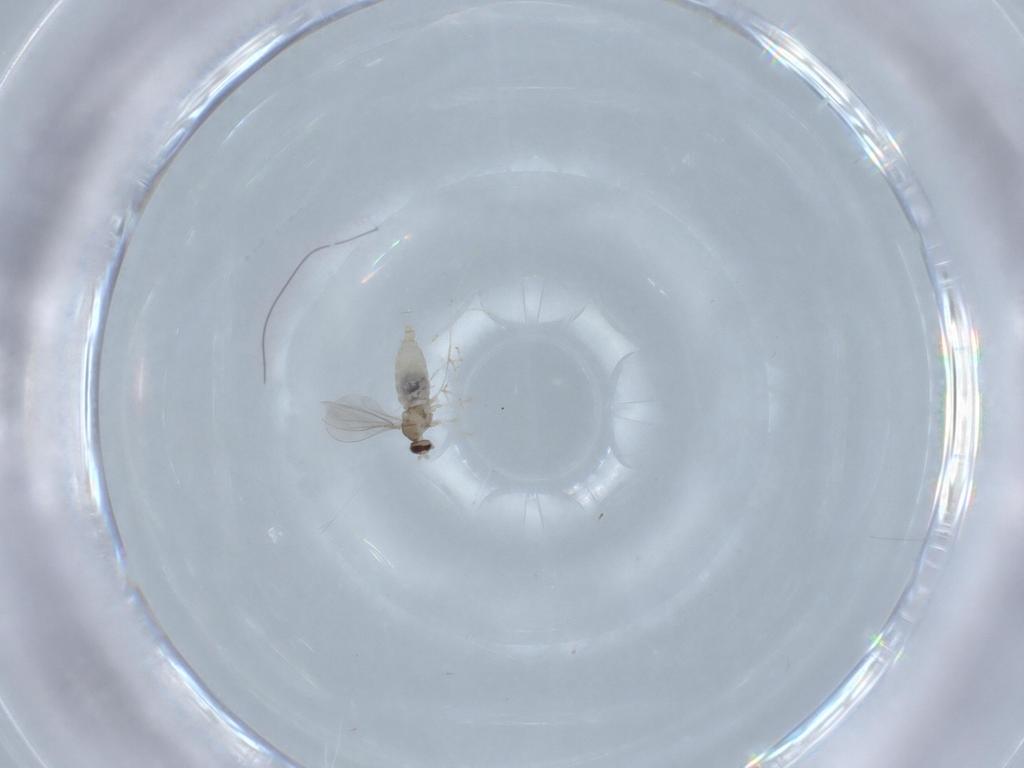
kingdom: Animalia
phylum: Arthropoda
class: Insecta
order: Diptera
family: Cecidomyiidae
